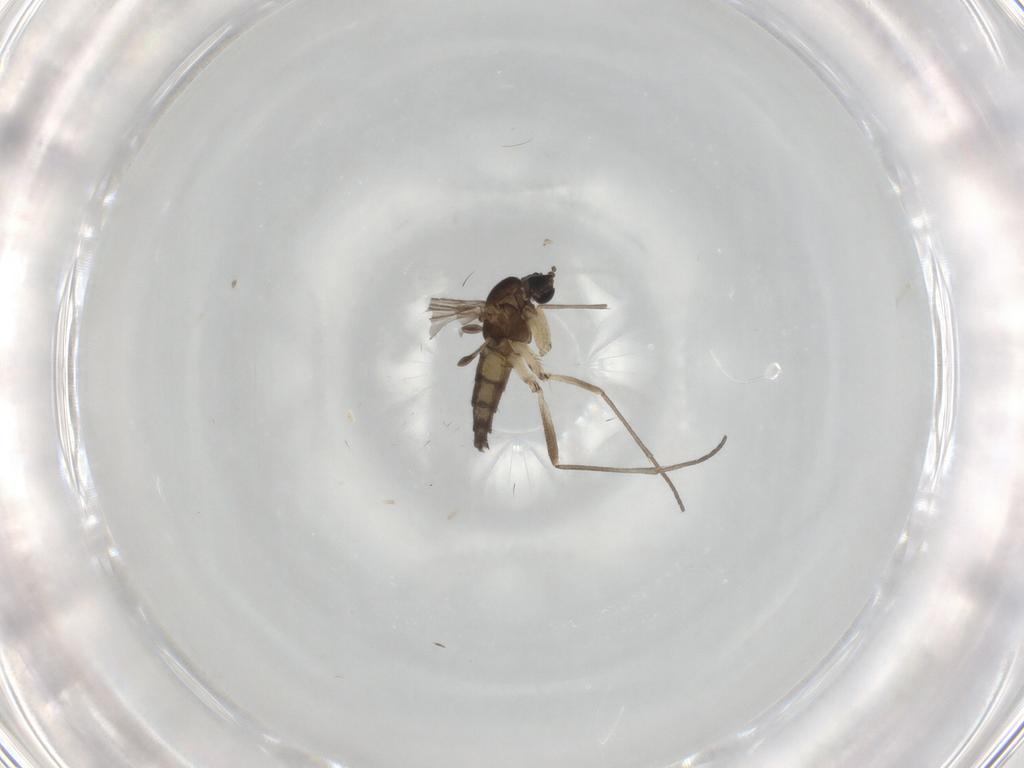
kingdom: Animalia
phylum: Arthropoda
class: Insecta
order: Diptera
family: Sciaridae
